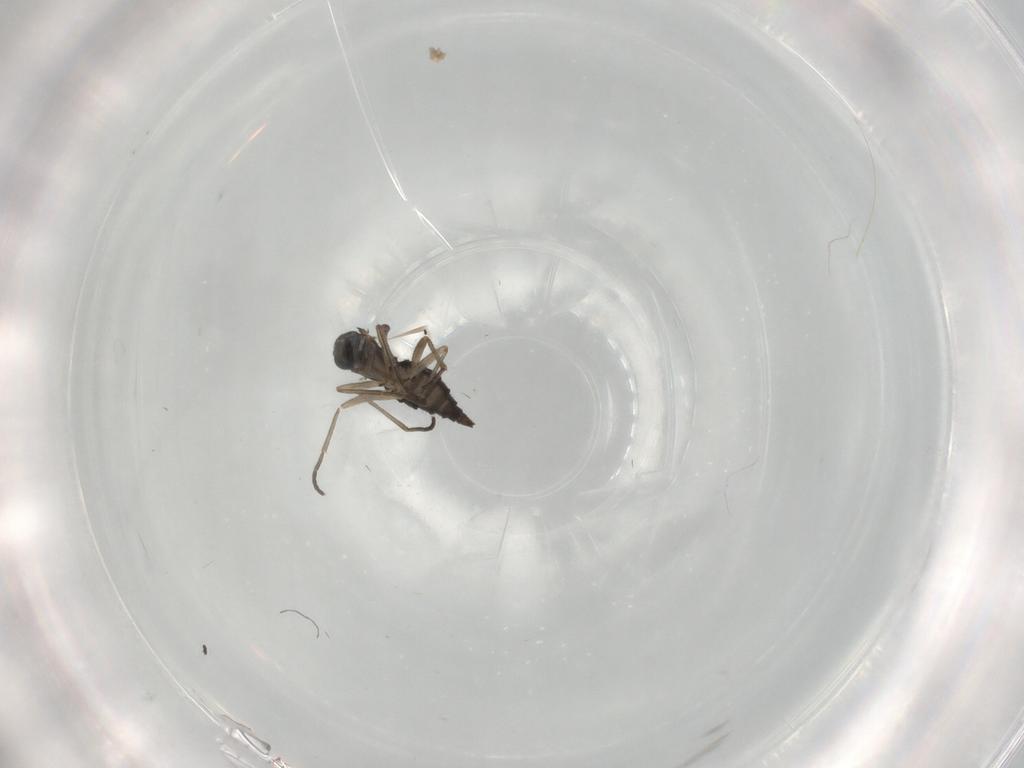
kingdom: Animalia
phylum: Arthropoda
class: Insecta
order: Diptera
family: Sciaridae
